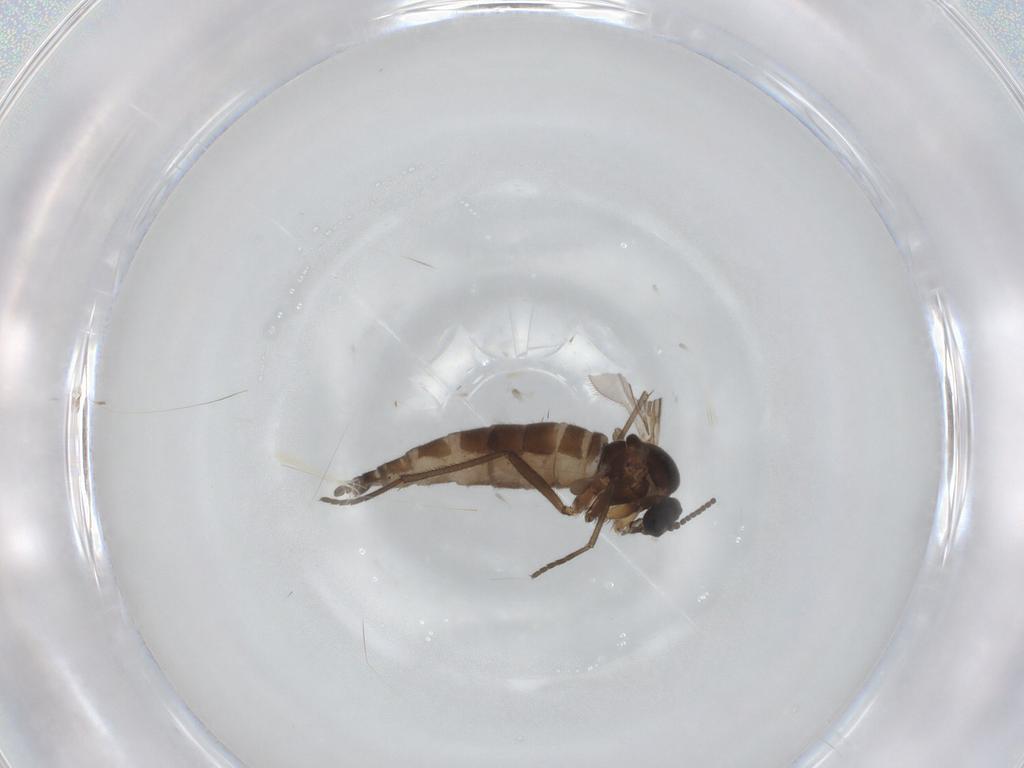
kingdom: Animalia
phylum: Arthropoda
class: Insecta
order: Diptera
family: Sciaridae
